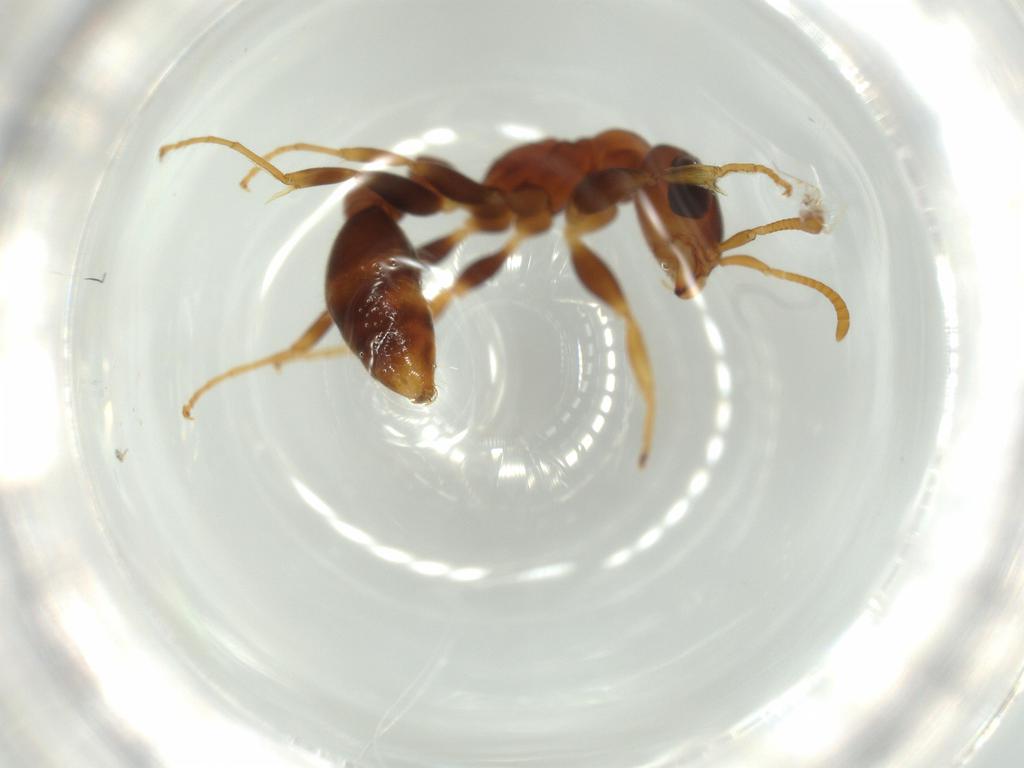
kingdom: Animalia
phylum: Arthropoda
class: Insecta
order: Hymenoptera
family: Formicidae
